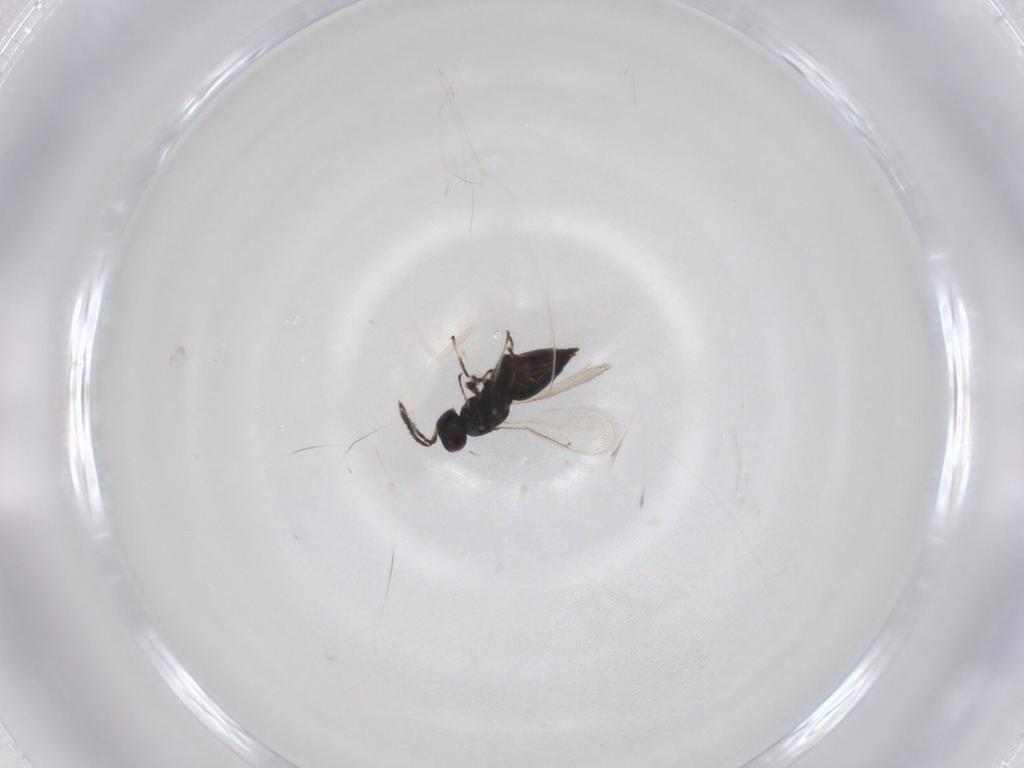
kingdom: Animalia
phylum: Arthropoda
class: Insecta
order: Hymenoptera
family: Eulophidae
